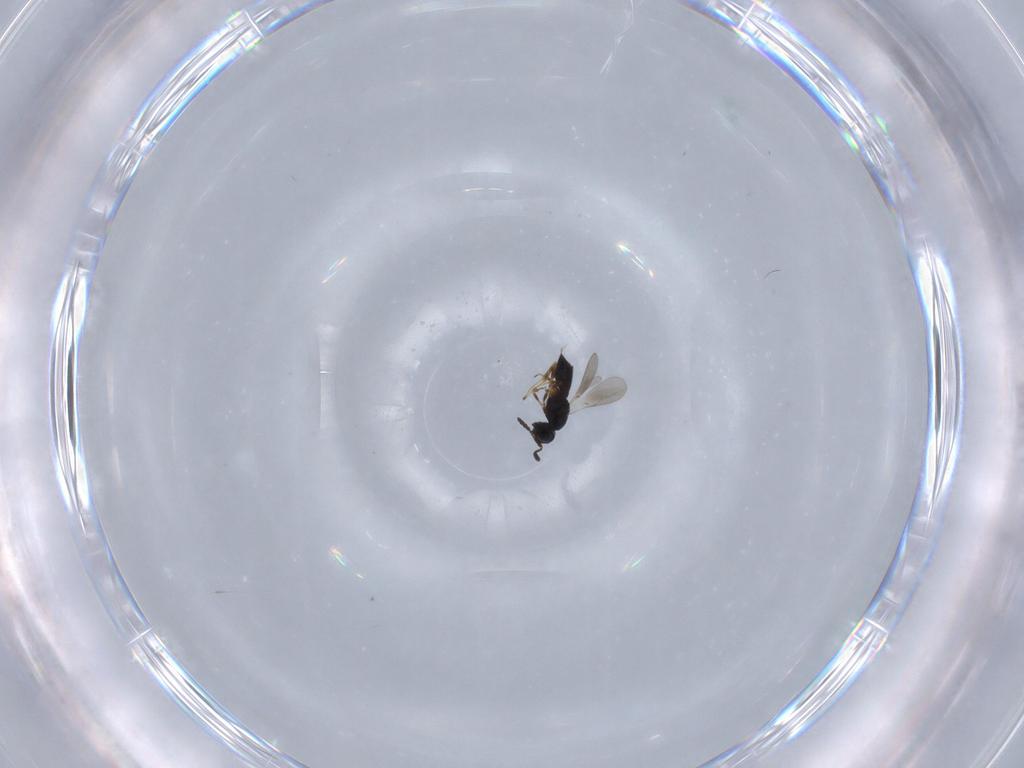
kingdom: Animalia
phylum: Arthropoda
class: Insecta
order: Hymenoptera
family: Scelionidae
